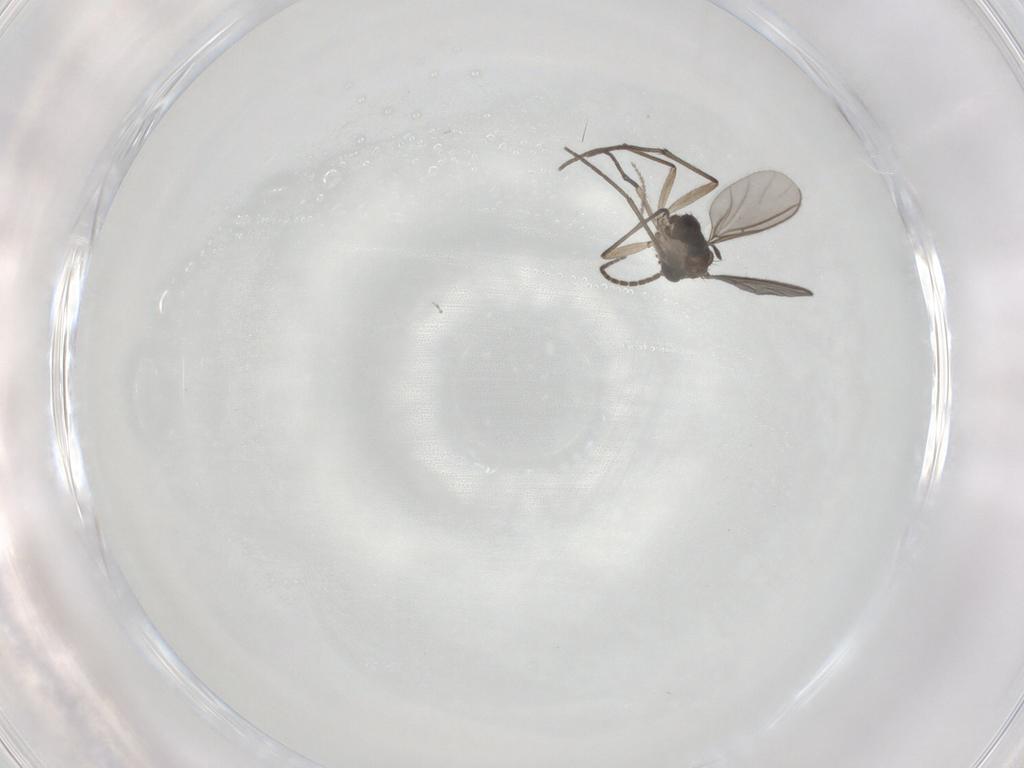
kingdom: Animalia
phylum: Arthropoda
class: Insecta
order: Diptera
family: Sciaridae
